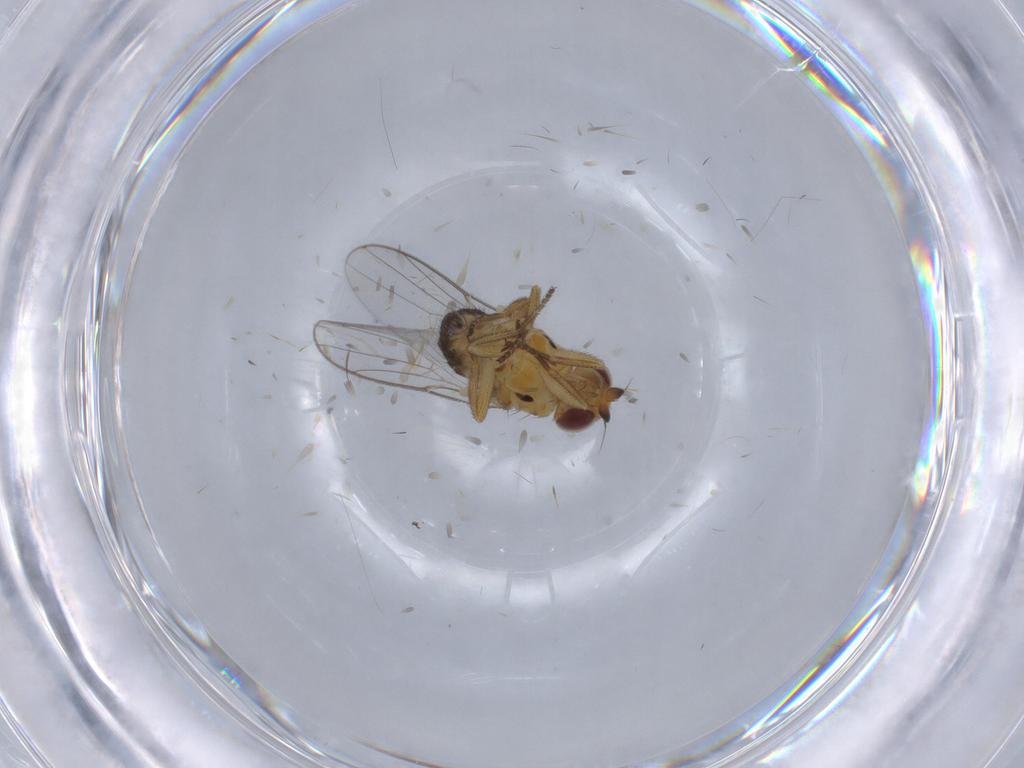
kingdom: Animalia
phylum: Arthropoda
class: Insecta
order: Diptera
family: Chloropidae
